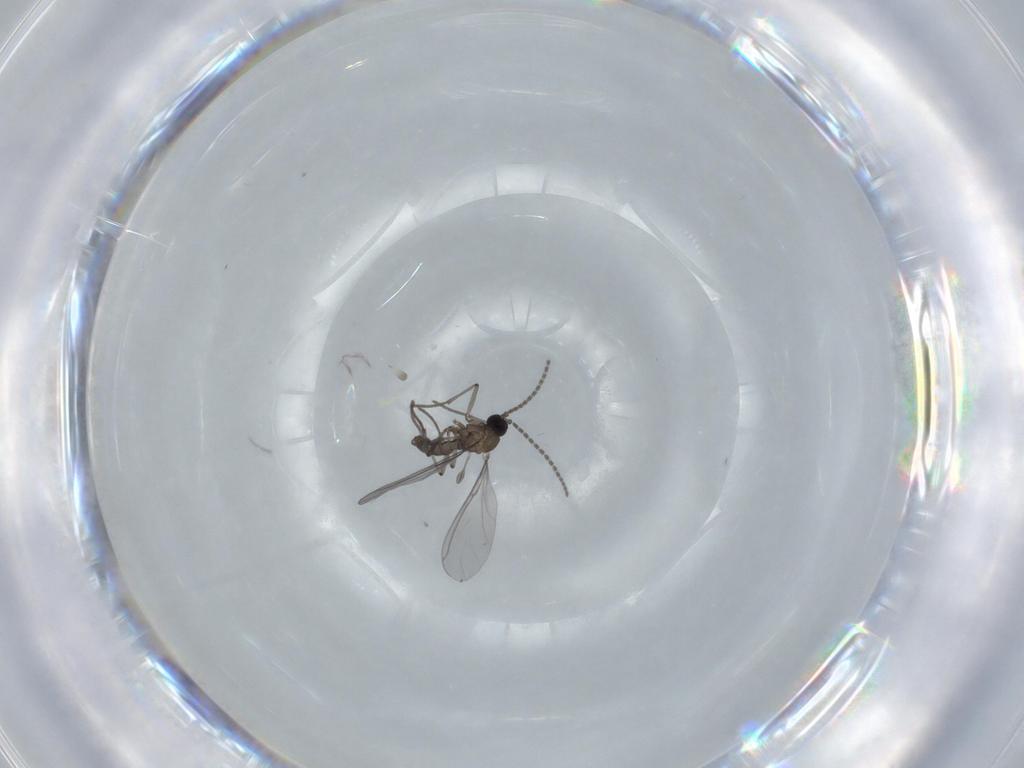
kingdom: Animalia
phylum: Arthropoda
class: Insecta
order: Diptera
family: Sciaridae
